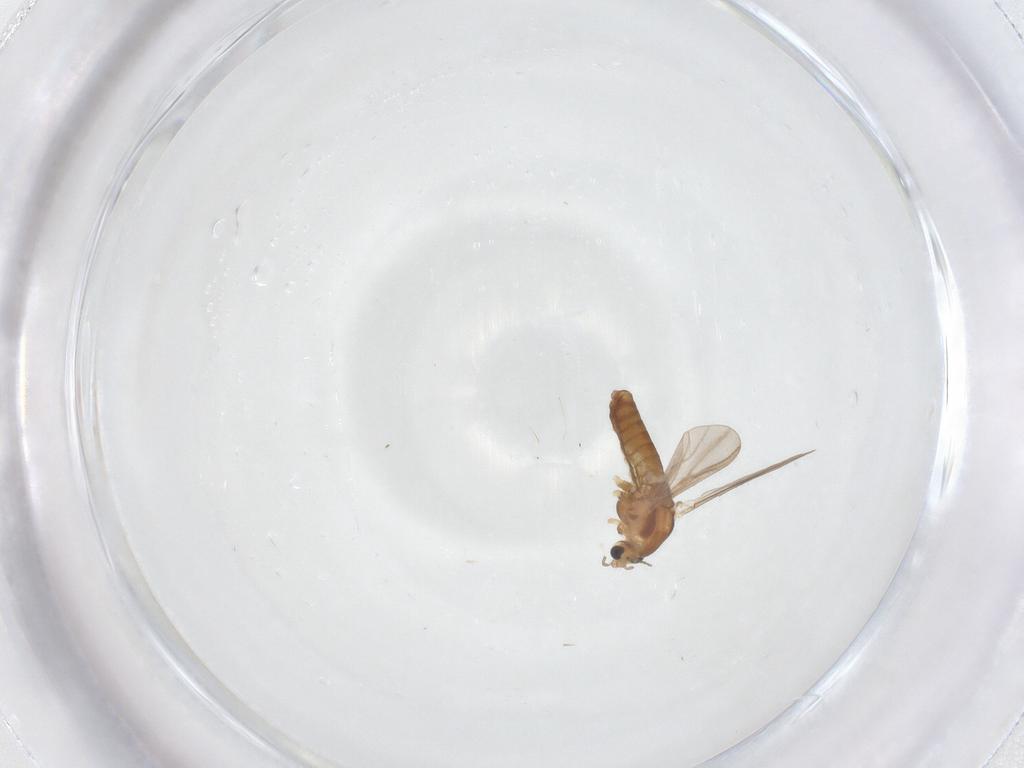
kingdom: Animalia
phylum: Arthropoda
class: Insecta
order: Diptera
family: Chironomidae
